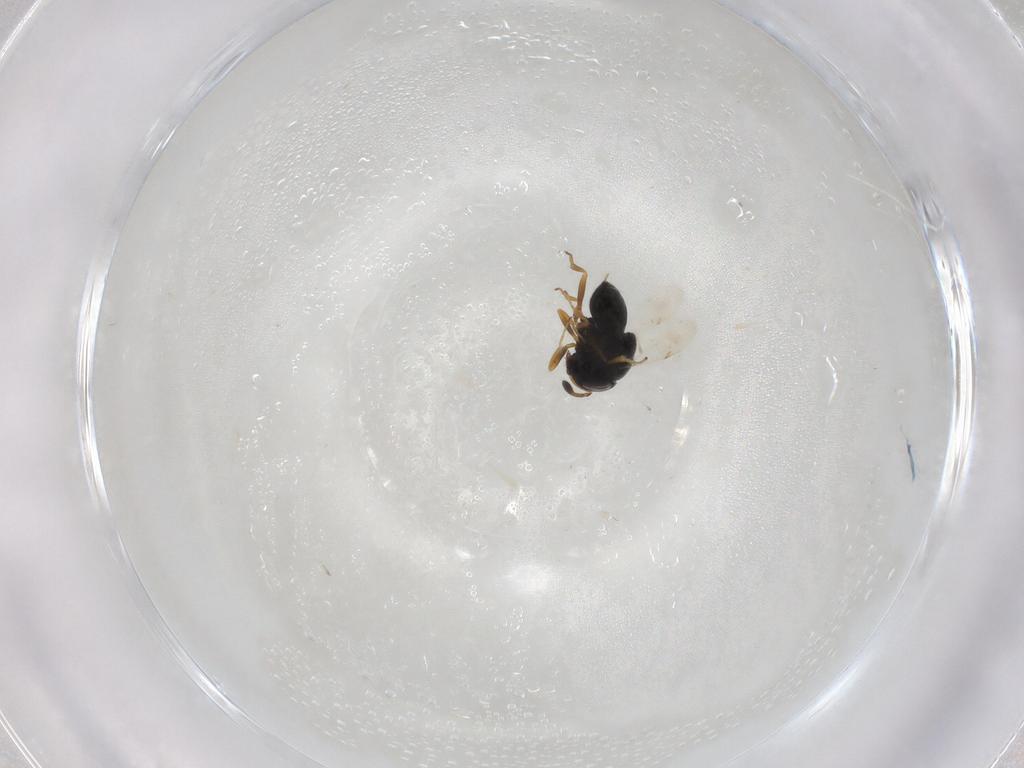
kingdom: Animalia
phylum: Arthropoda
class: Insecta
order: Hymenoptera
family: Scelionidae
